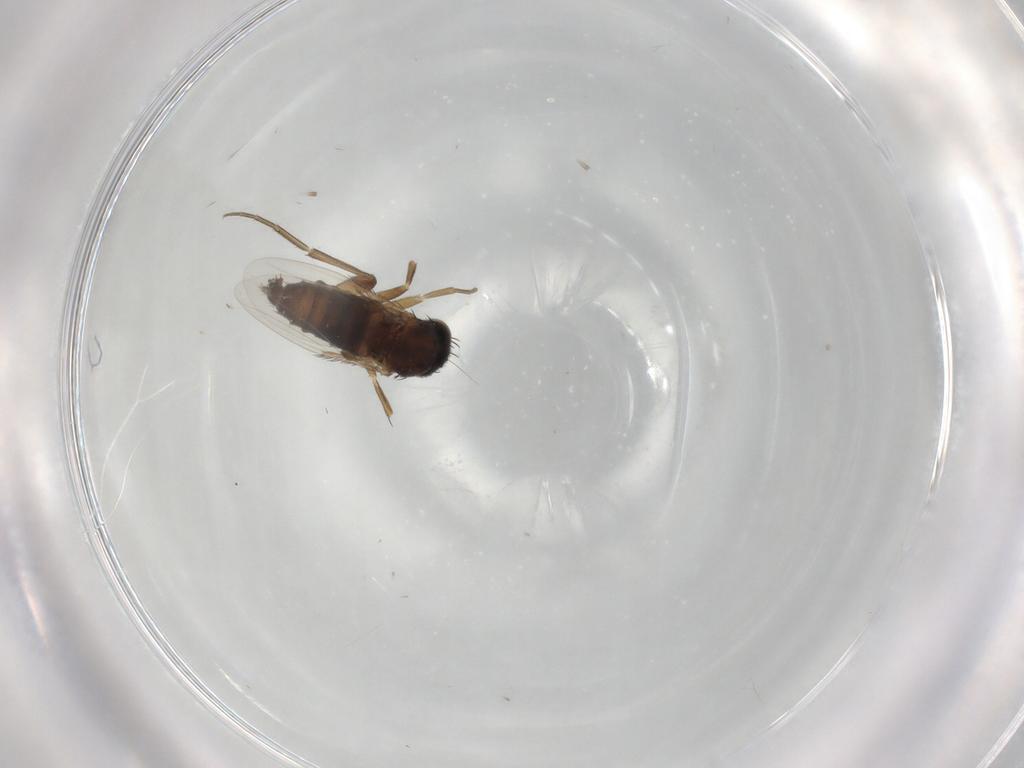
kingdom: Animalia
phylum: Arthropoda
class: Insecta
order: Diptera
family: Phoridae
